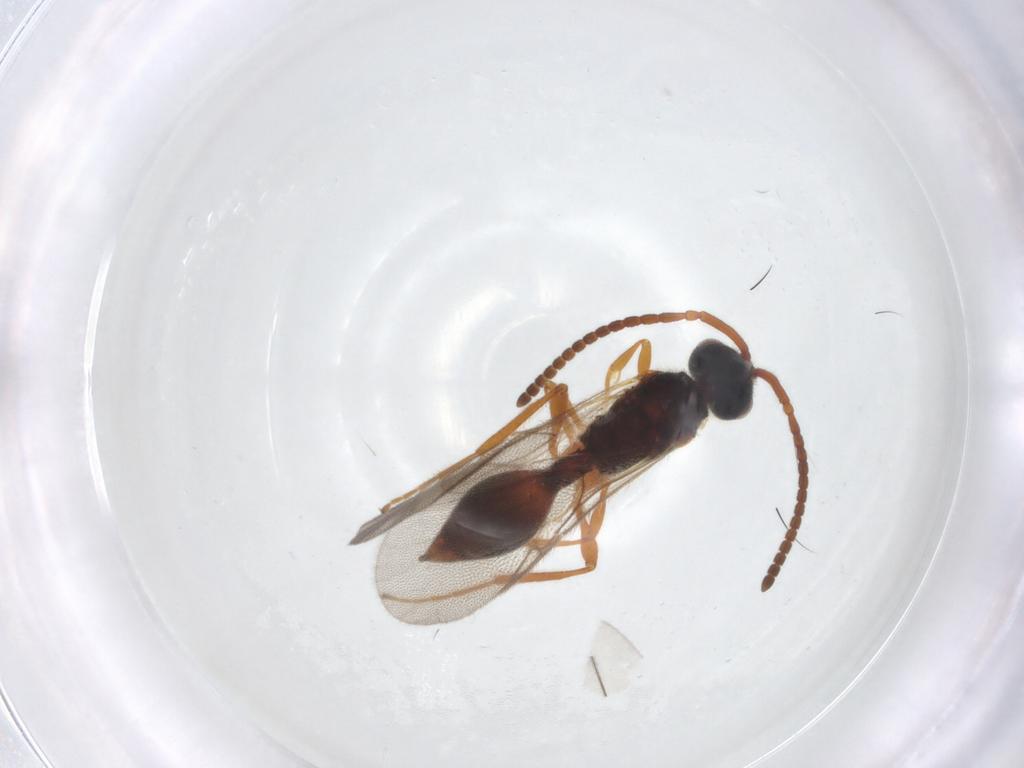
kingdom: Animalia
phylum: Arthropoda
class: Insecta
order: Hymenoptera
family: Diapriidae
